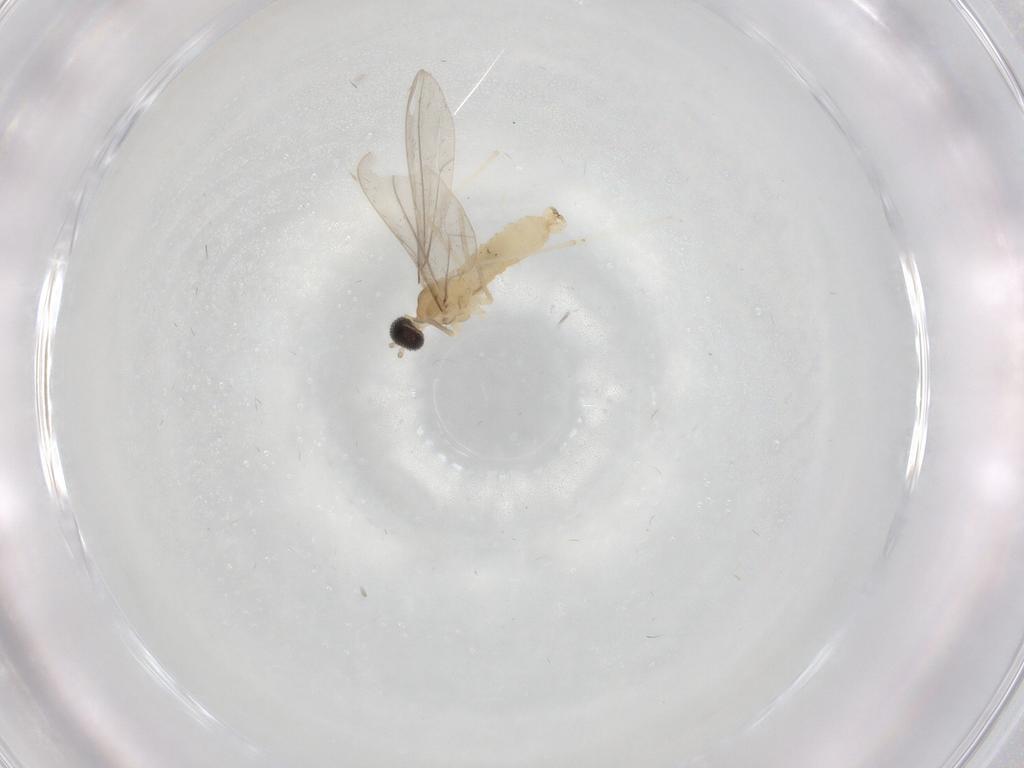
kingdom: Animalia
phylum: Arthropoda
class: Insecta
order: Diptera
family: Cecidomyiidae
